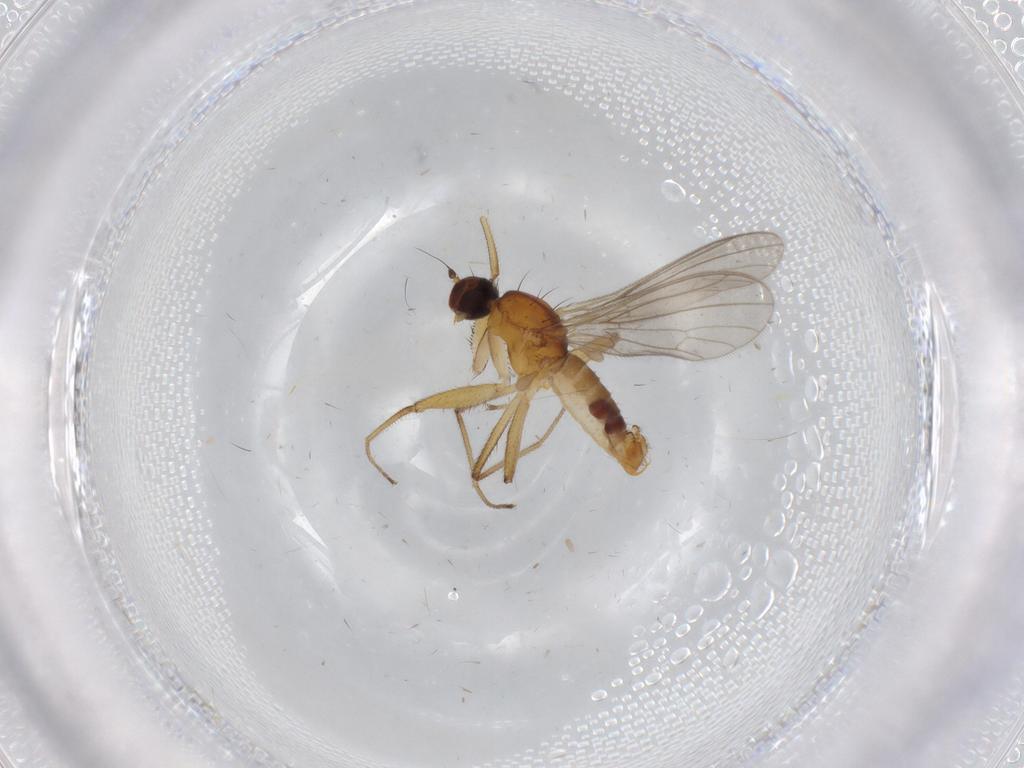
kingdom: Animalia
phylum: Arthropoda
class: Insecta
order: Diptera
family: Empididae
